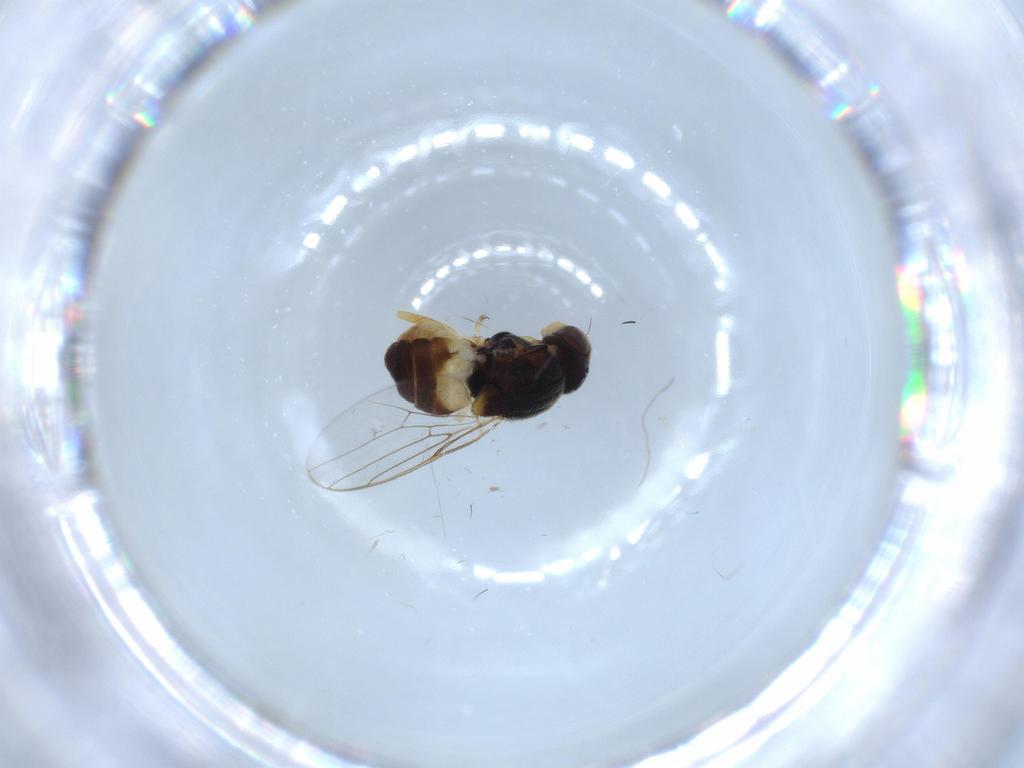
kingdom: Animalia
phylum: Arthropoda
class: Insecta
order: Diptera
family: Chloropidae
